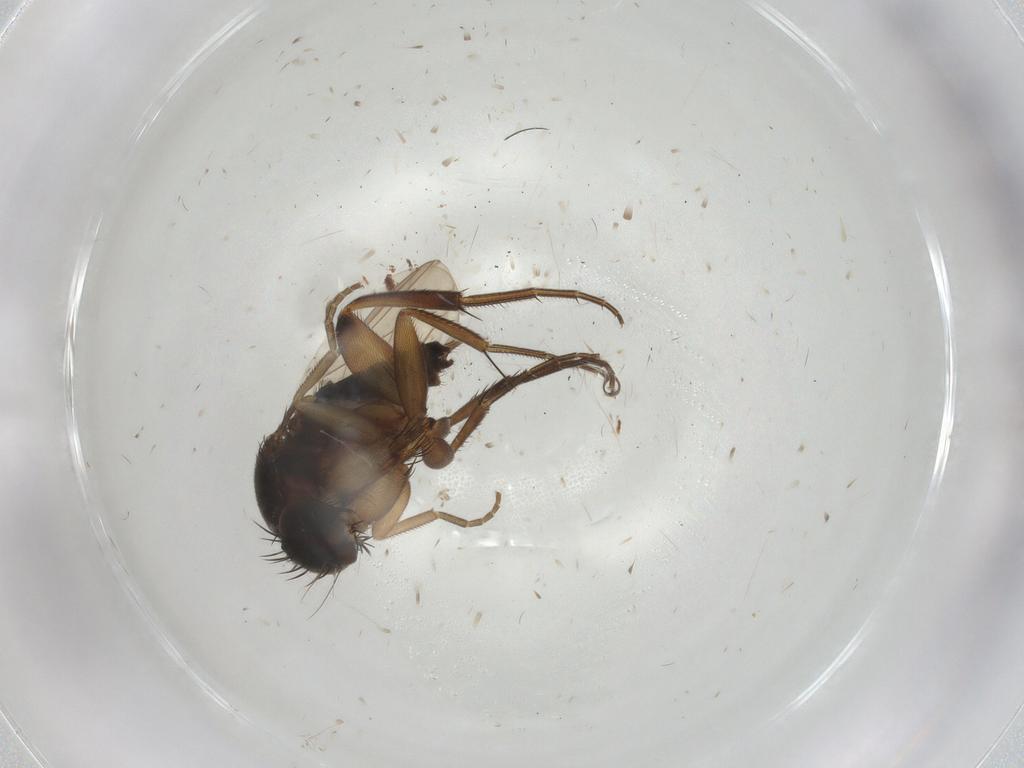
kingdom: Animalia
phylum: Arthropoda
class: Insecta
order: Diptera
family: Phoridae
